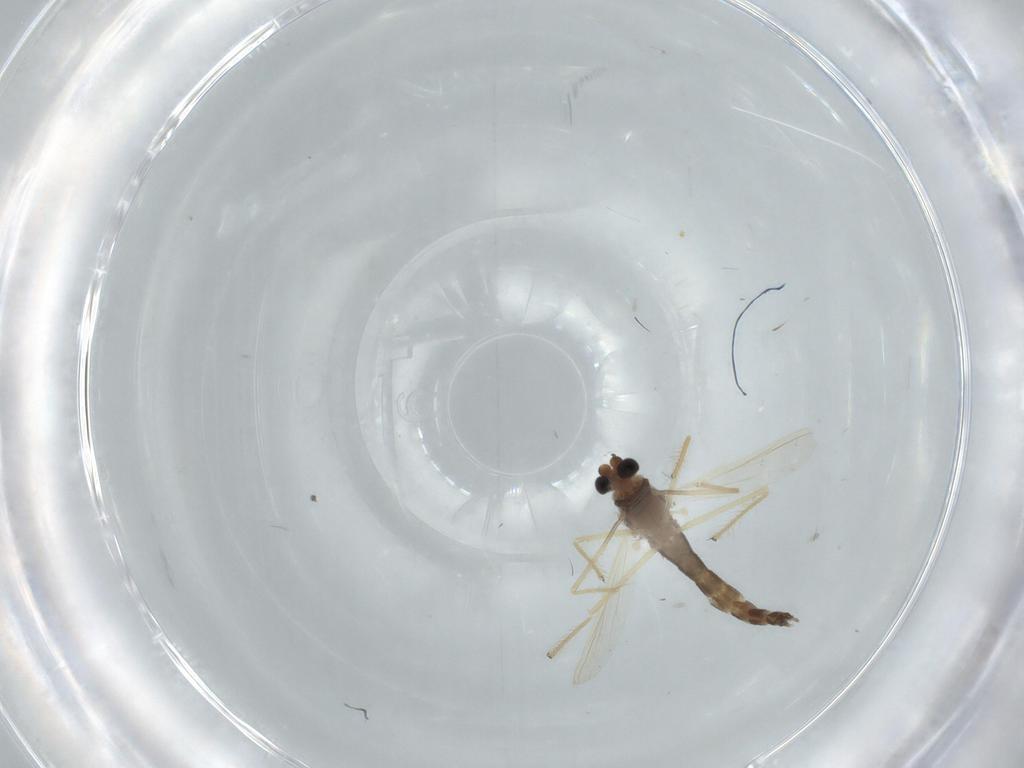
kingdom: Animalia
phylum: Arthropoda
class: Insecta
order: Diptera
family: Chironomidae
